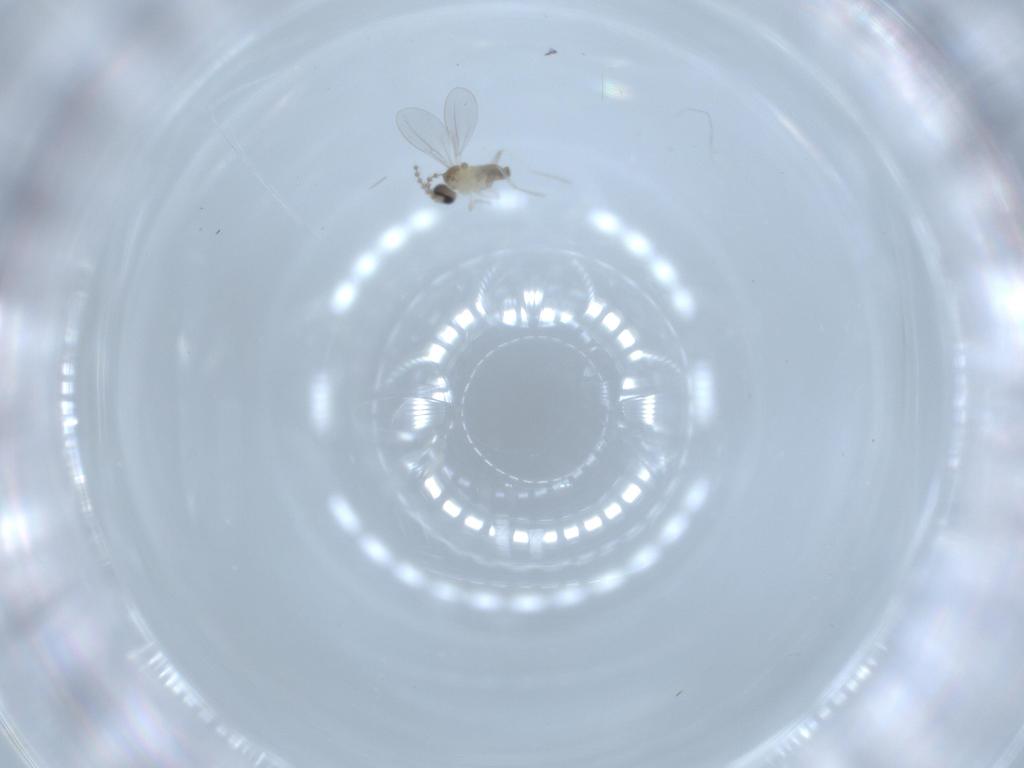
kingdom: Animalia
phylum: Arthropoda
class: Insecta
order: Diptera
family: Cecidomyiidae
